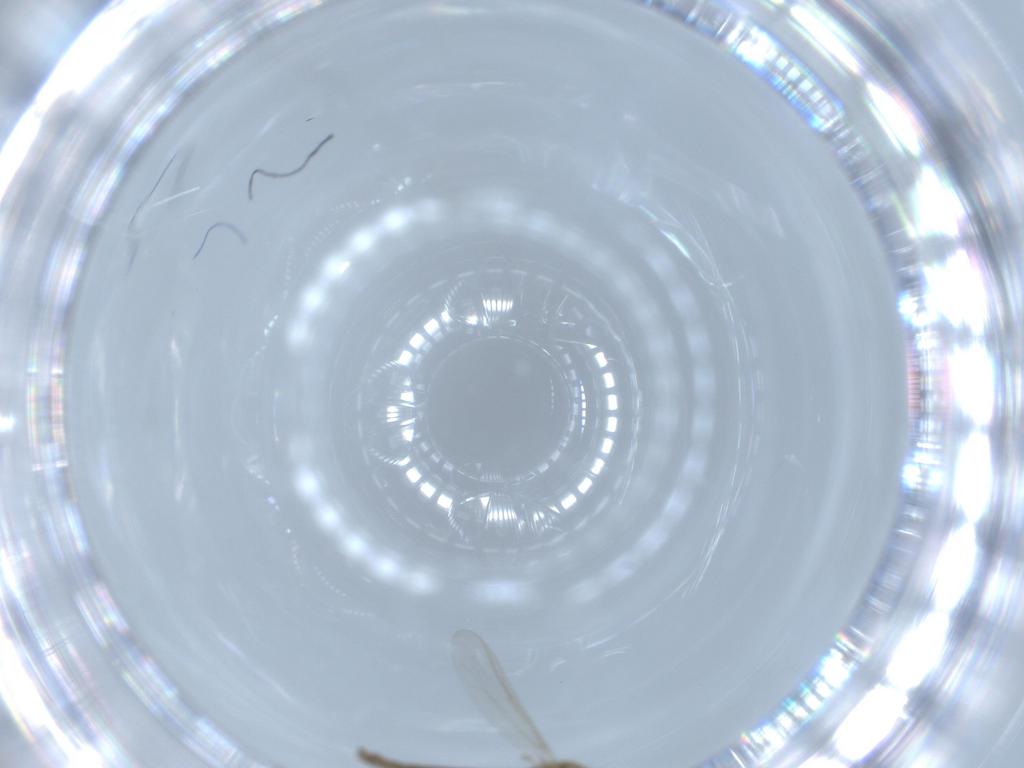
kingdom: Animalia
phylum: Arthropoda
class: Insecta
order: Diptera
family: Chironomidae
